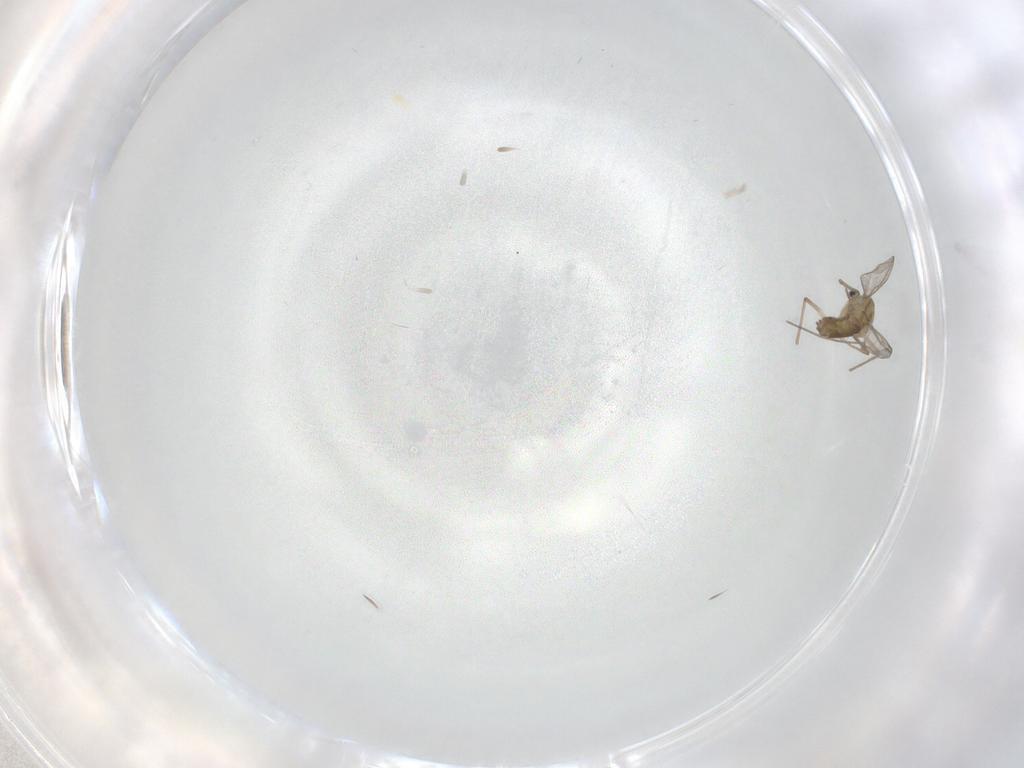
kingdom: Animalia
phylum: Arthropoda
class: Insecta
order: Diptera
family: Chironomidae
